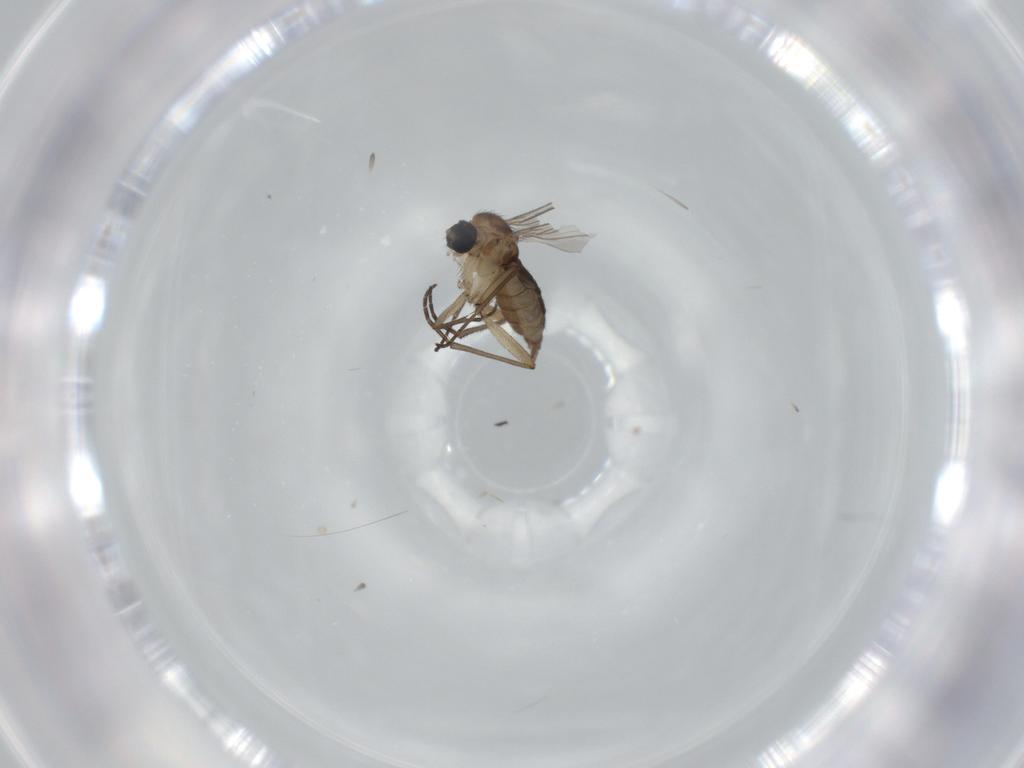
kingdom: Animalia
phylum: Arthropoda
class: Insecta
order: Diptera
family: Sciaridae
